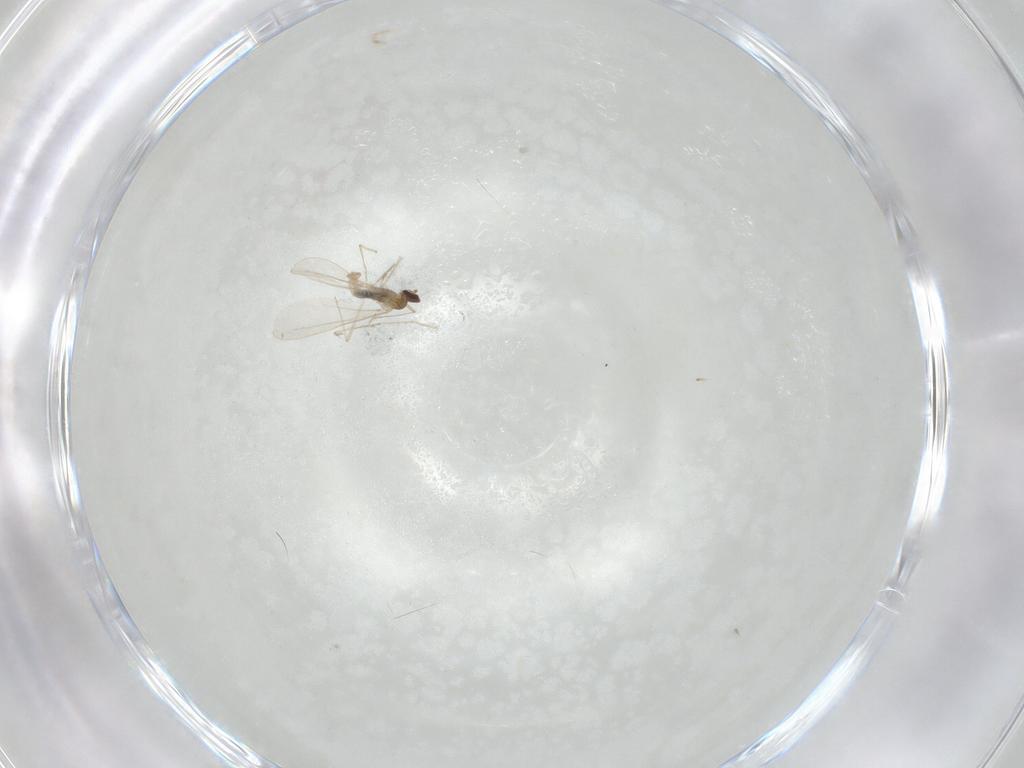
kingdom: Animalia
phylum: Arthropoda
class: Insecta
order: Diptera
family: Cecidomyiidae
